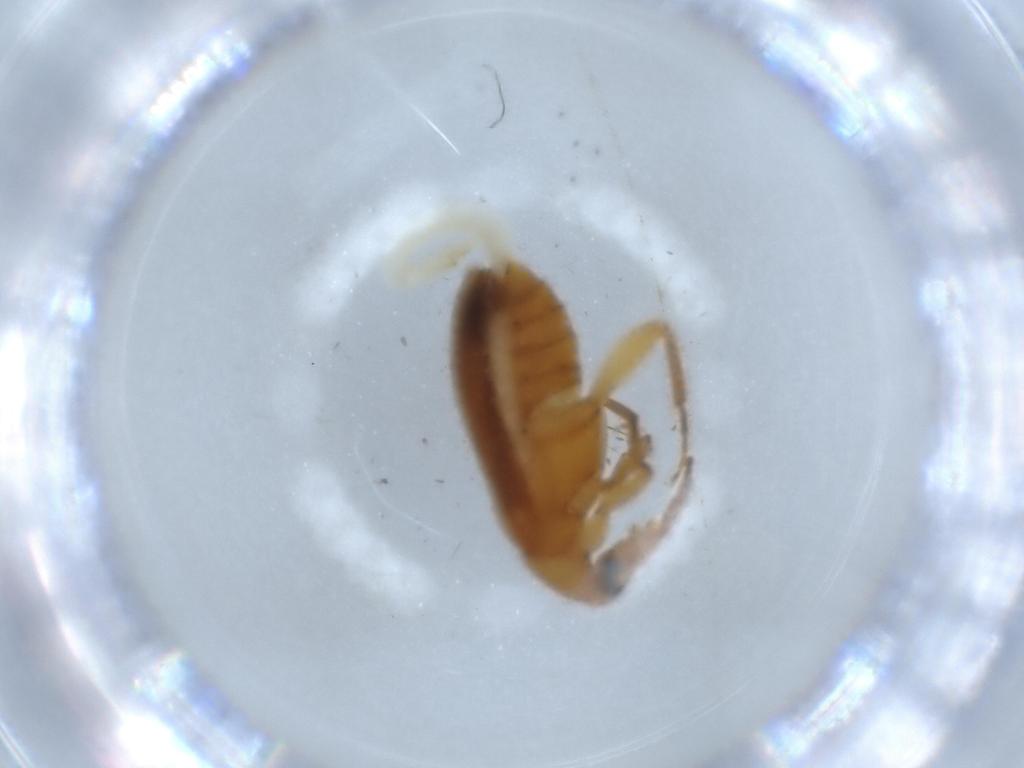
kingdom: Animalia
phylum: Arthropoda
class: Insecta
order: Coleoptera
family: Scraptiidae
